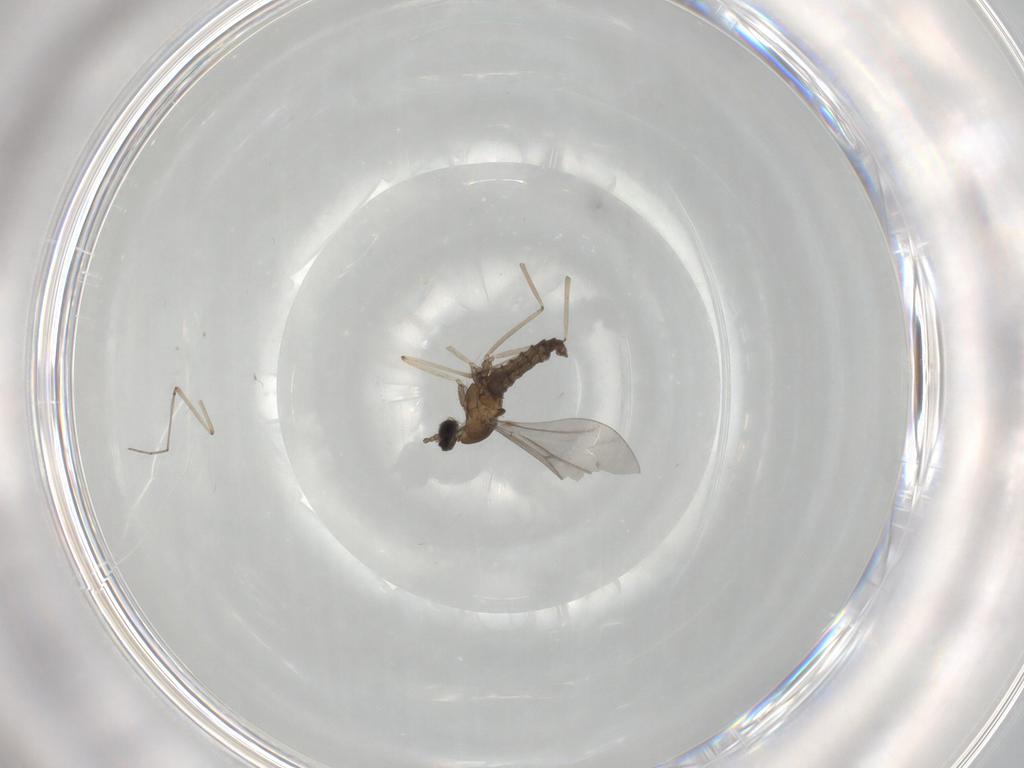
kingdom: Animalia
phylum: Arthropoda
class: Insecta
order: Diptera
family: Cecidomyiidae
